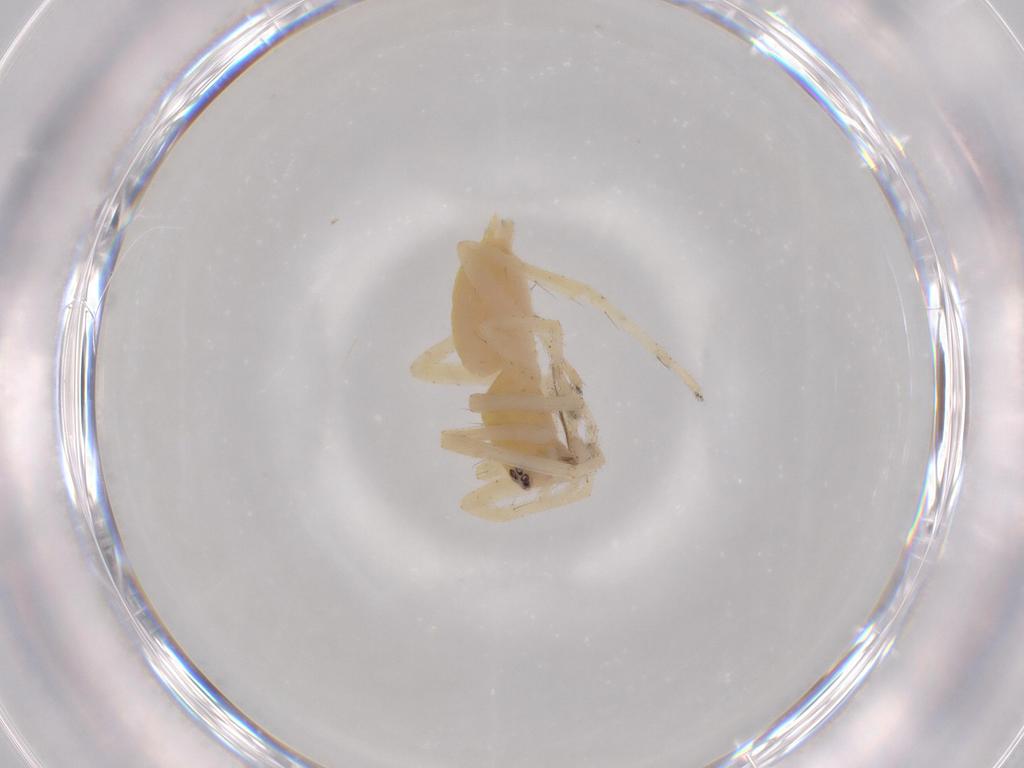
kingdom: Animalia
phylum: Arthropoda
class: Arachnida
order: Araneae
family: Anyphaenidae
